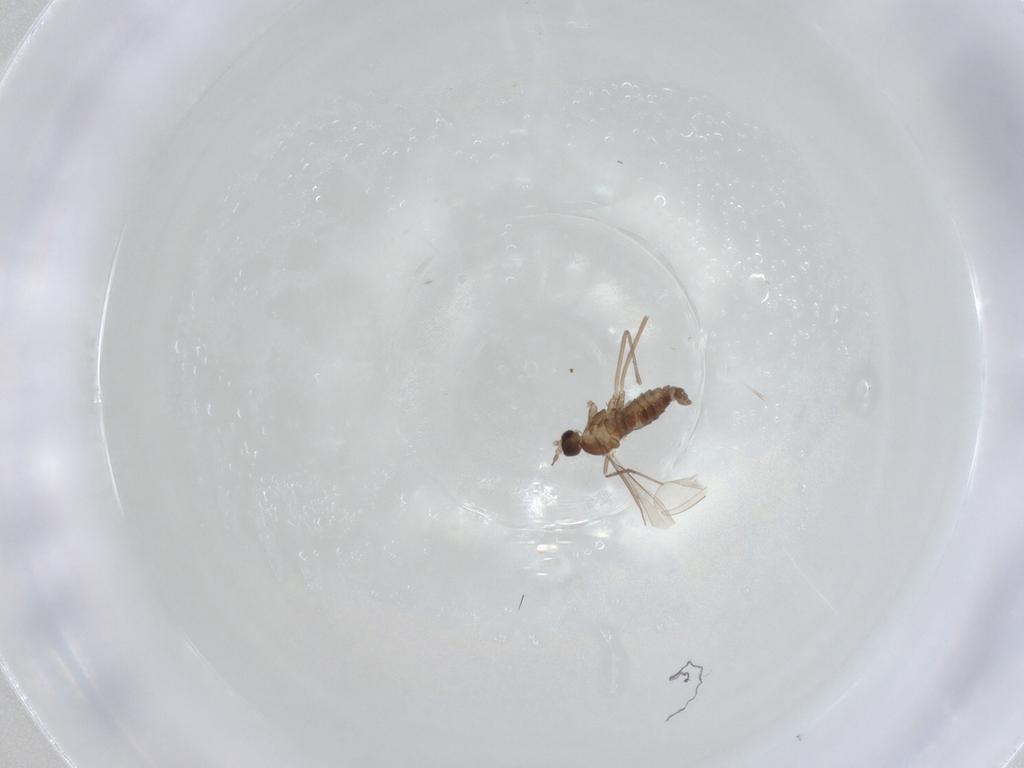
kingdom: Animalia
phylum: Arthropoda
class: Insecta
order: Diptera
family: Cecidomyiidae
